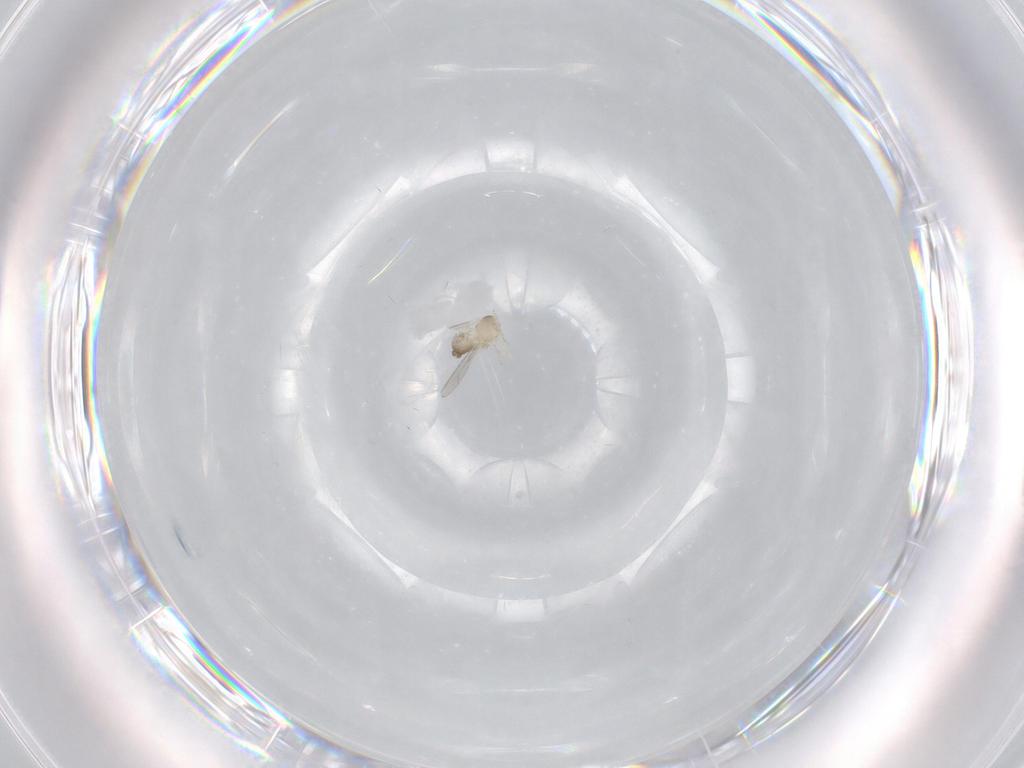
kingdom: Animalia
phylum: Arthropoda
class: Insecta
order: Diptera
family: Cecidomyiidae
